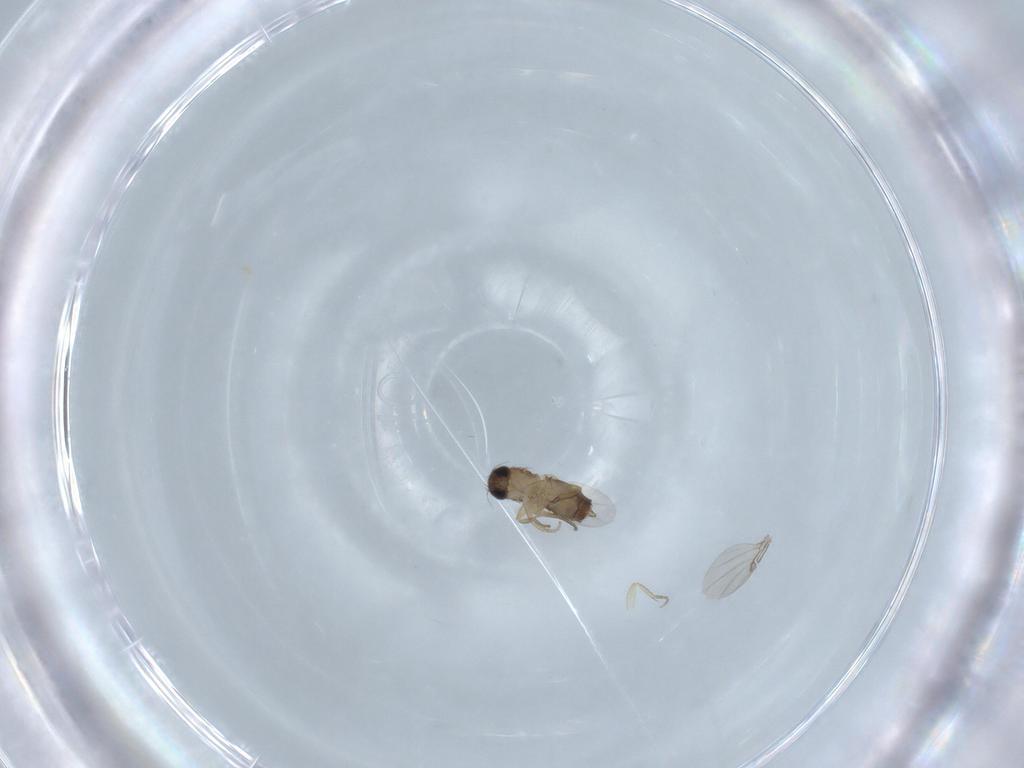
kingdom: Animalia
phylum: Arthropoda
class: Insecta
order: Diptera
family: Phoridae
